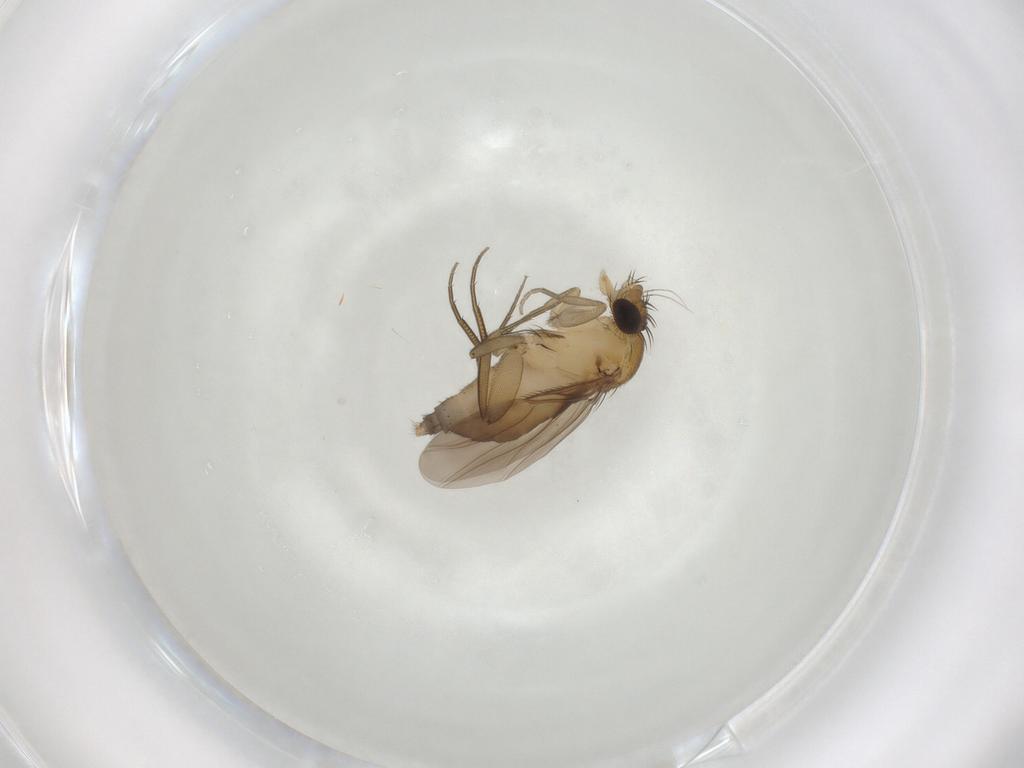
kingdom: Animalia
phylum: Arthropoda
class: Insecta
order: Diptera
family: Phoridae
